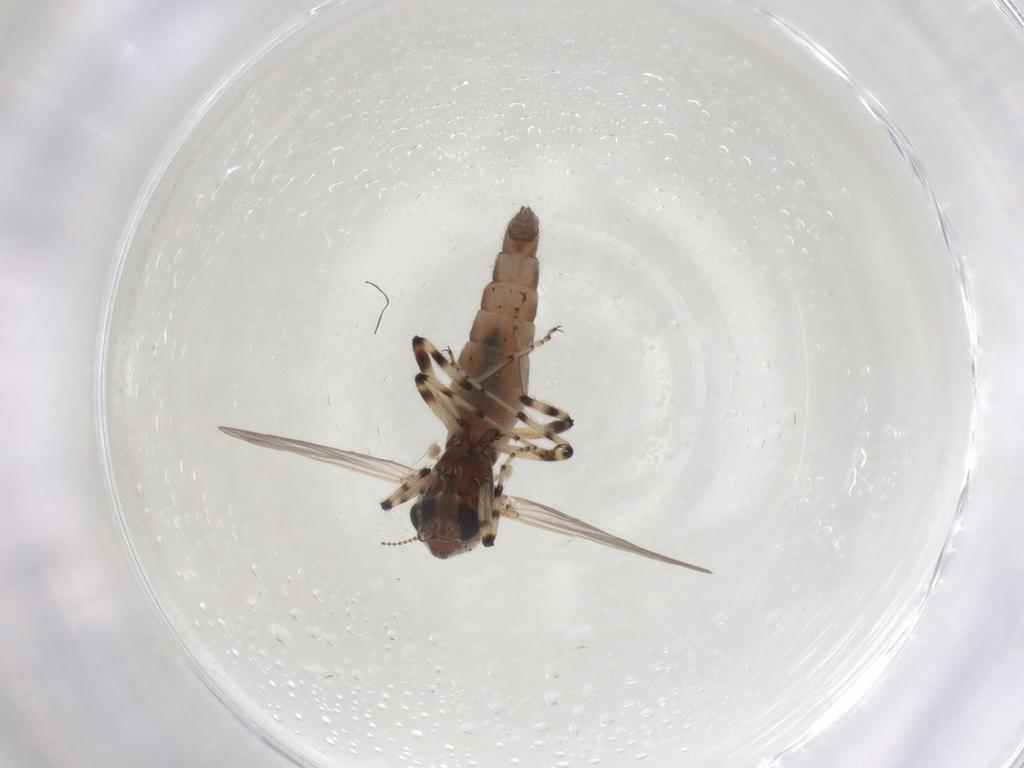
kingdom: Animalia
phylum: Arthropoda
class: Insecta
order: Diptera
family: Ceratopogonidae
